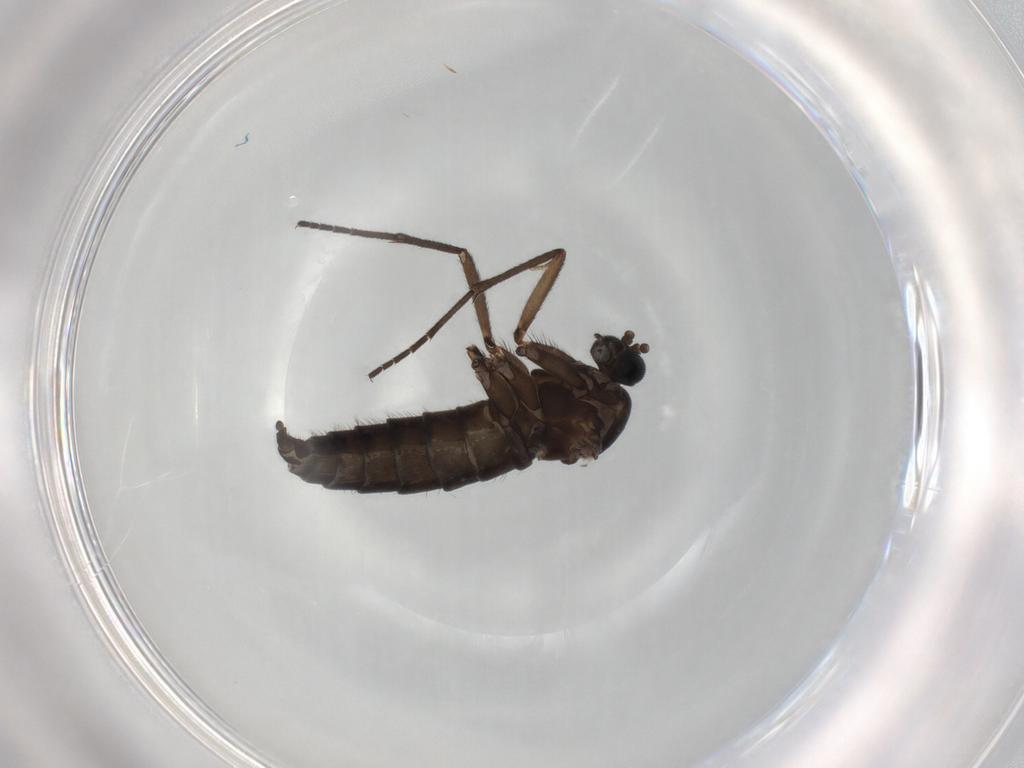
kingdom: Animalia
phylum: Arthropoda
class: Insecta
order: Diptera
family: Sciaridae
